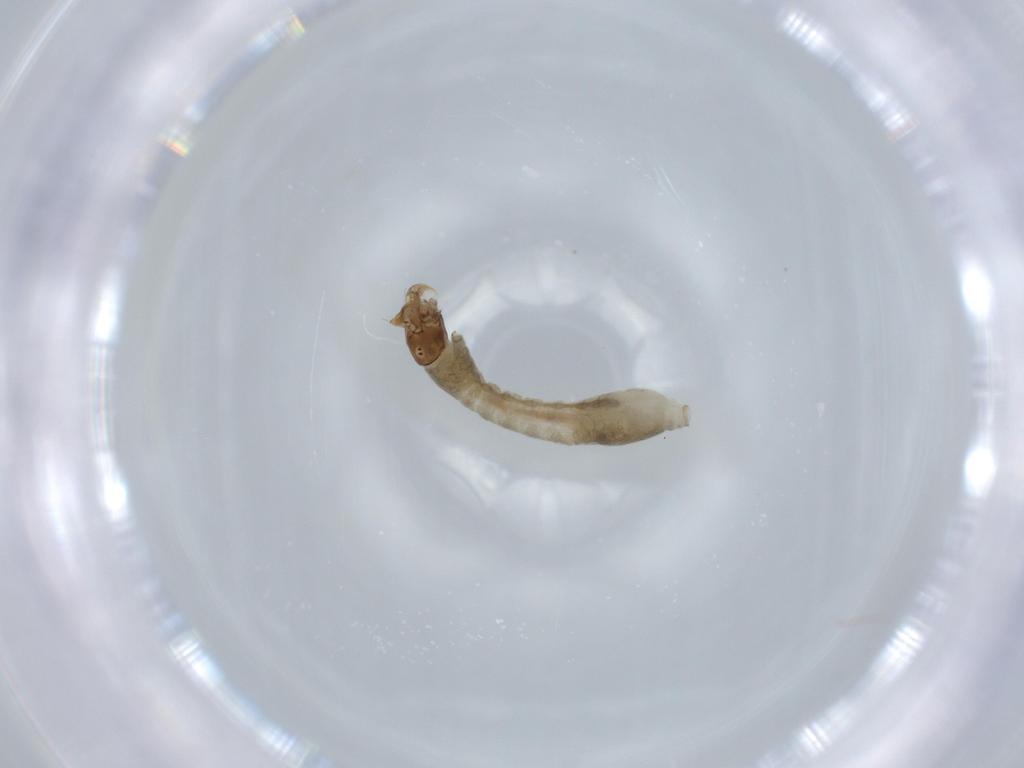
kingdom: Animalia
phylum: Arthropoda
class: Insecta
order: Diptera
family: Simuliidae
